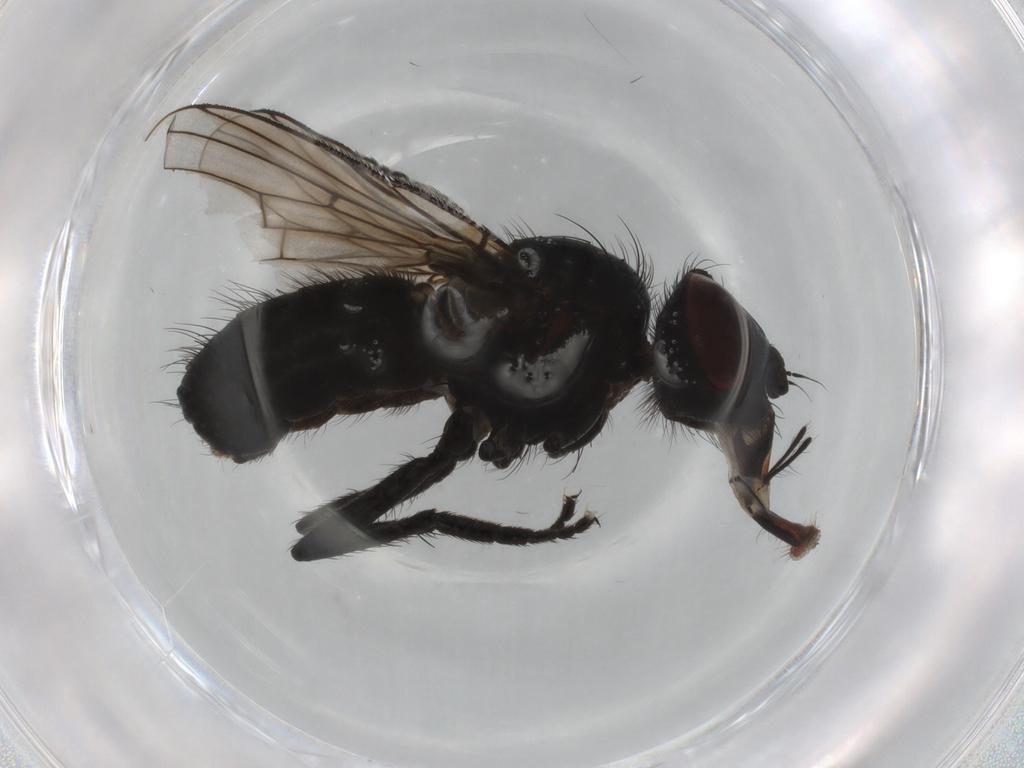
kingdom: Animalia
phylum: Arthropoda
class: Insecta
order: Diptera
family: Muscidae
